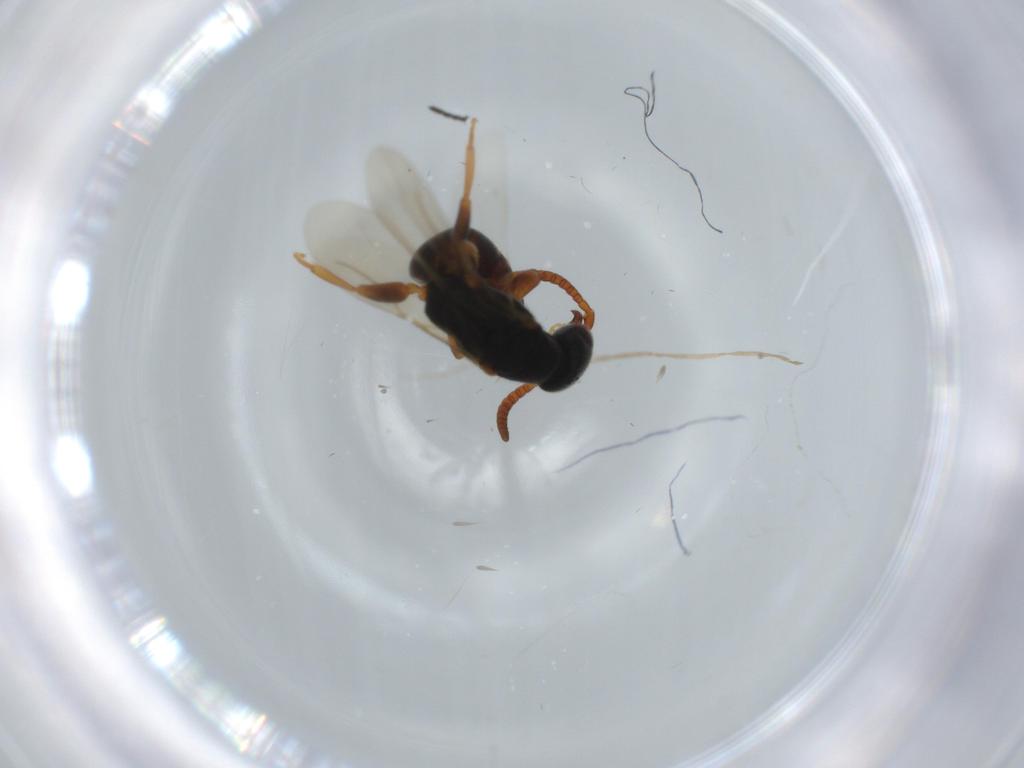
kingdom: Animalia
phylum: Arthropoda
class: Insecta
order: Hymenoptera
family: Bethylidae
